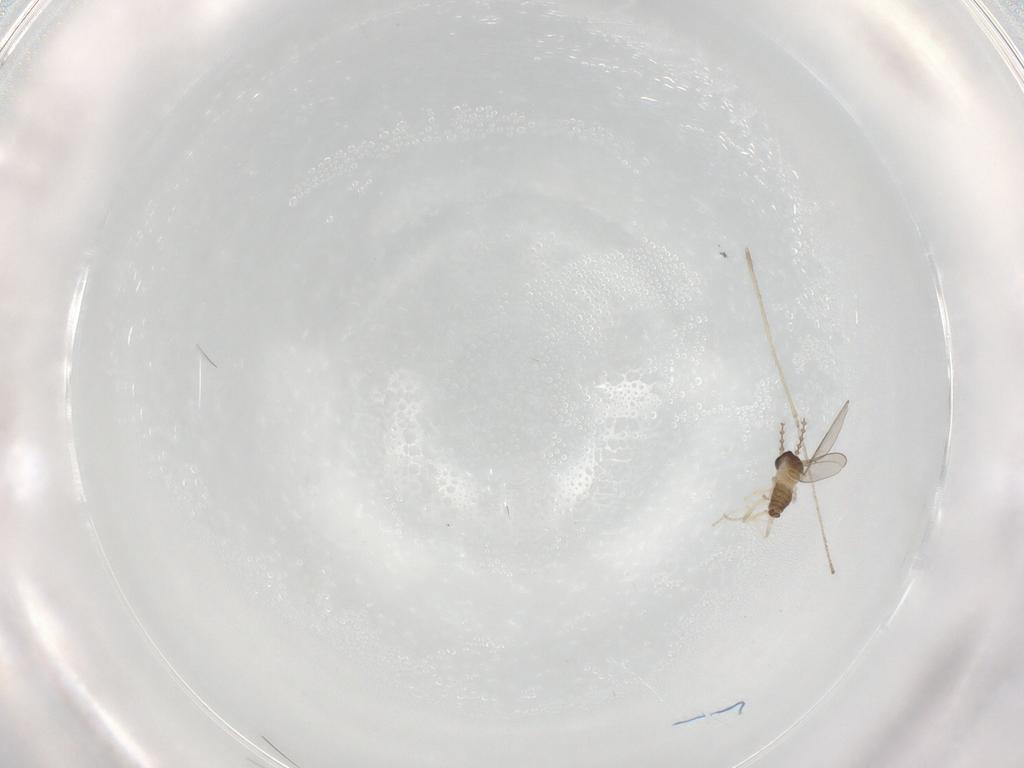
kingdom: Animalia
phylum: Arthropoda
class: Insecta
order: Diptera
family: Cecidomyiidae
